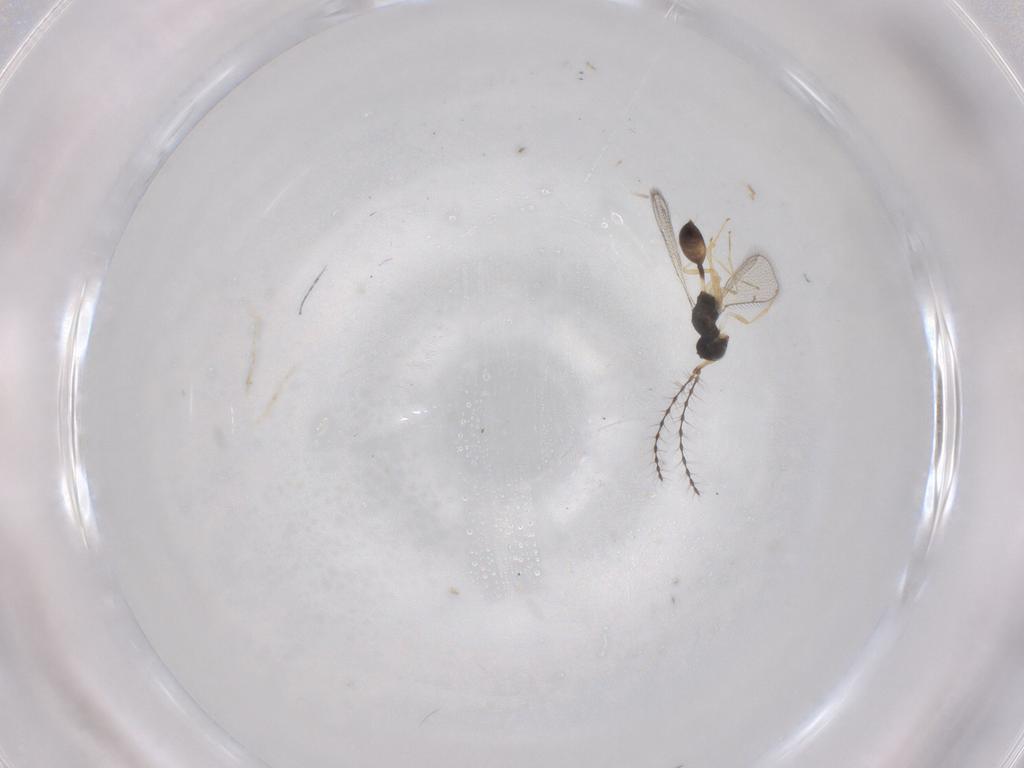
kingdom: Animalia
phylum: Arthropoda
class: Insecta
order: Hymenoptera
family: Diparidae
